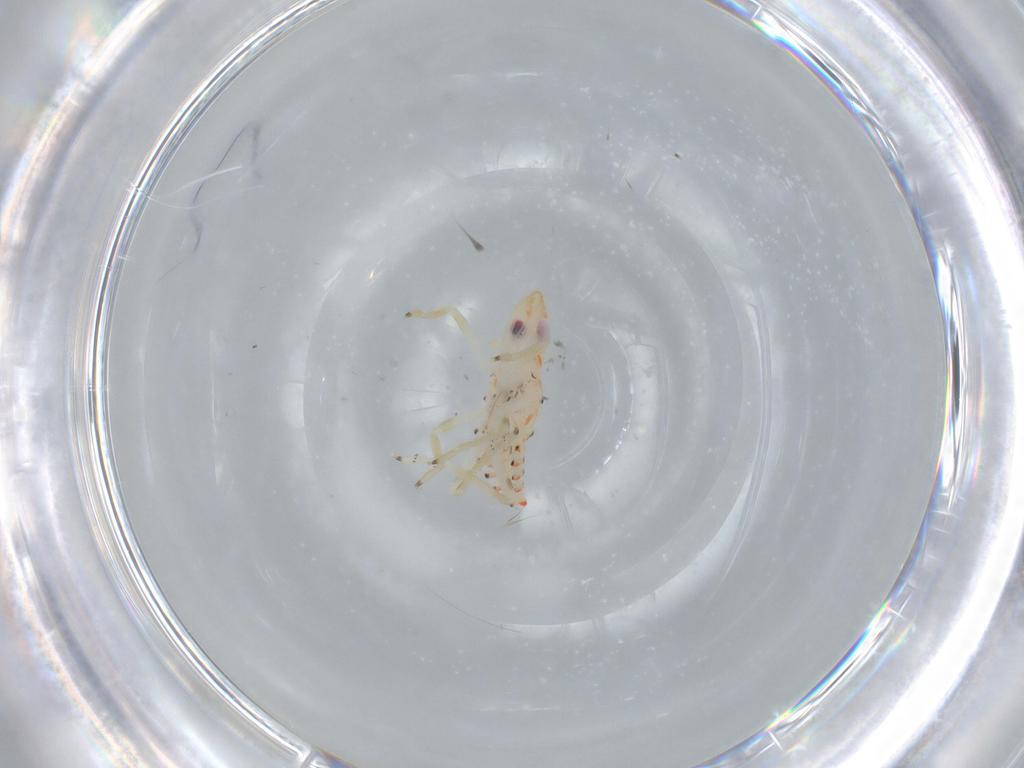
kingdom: Animalia
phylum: Arthropoda
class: Insecta
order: Hemiptera
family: Tropiduchidae
